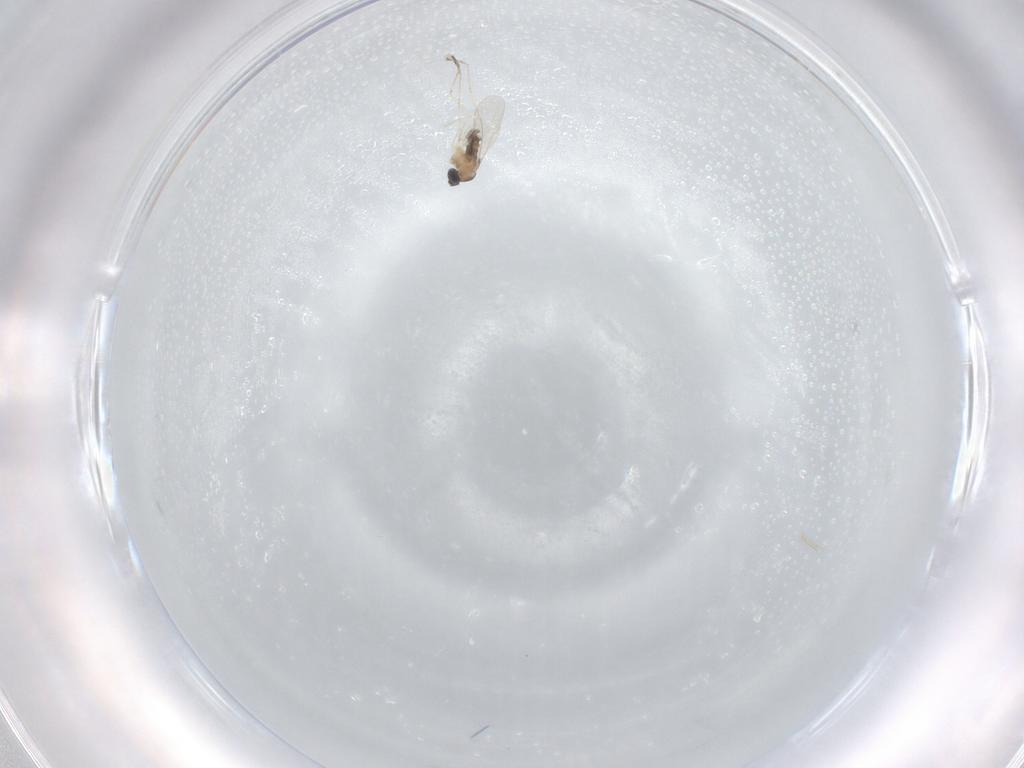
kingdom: Animalia
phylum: Arthropoda
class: Insecta
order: Diptera
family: Cecidomyiidae
